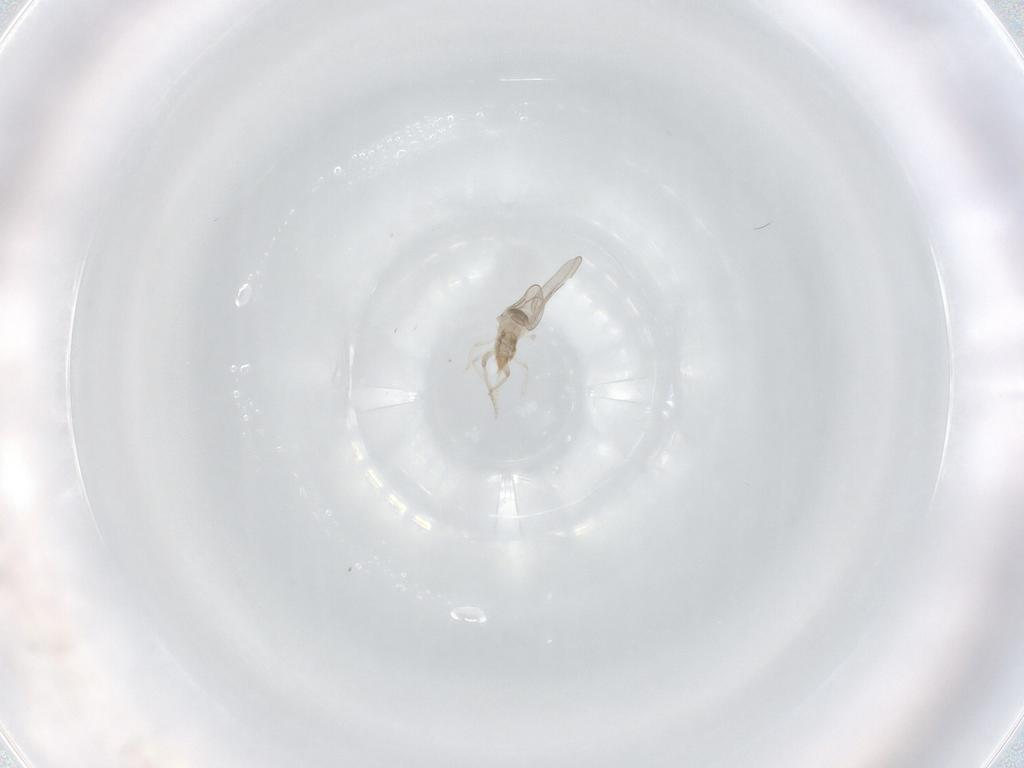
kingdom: Animalia
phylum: Arthropoda
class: Insecta
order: Diptera
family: Cecidomyiidae
